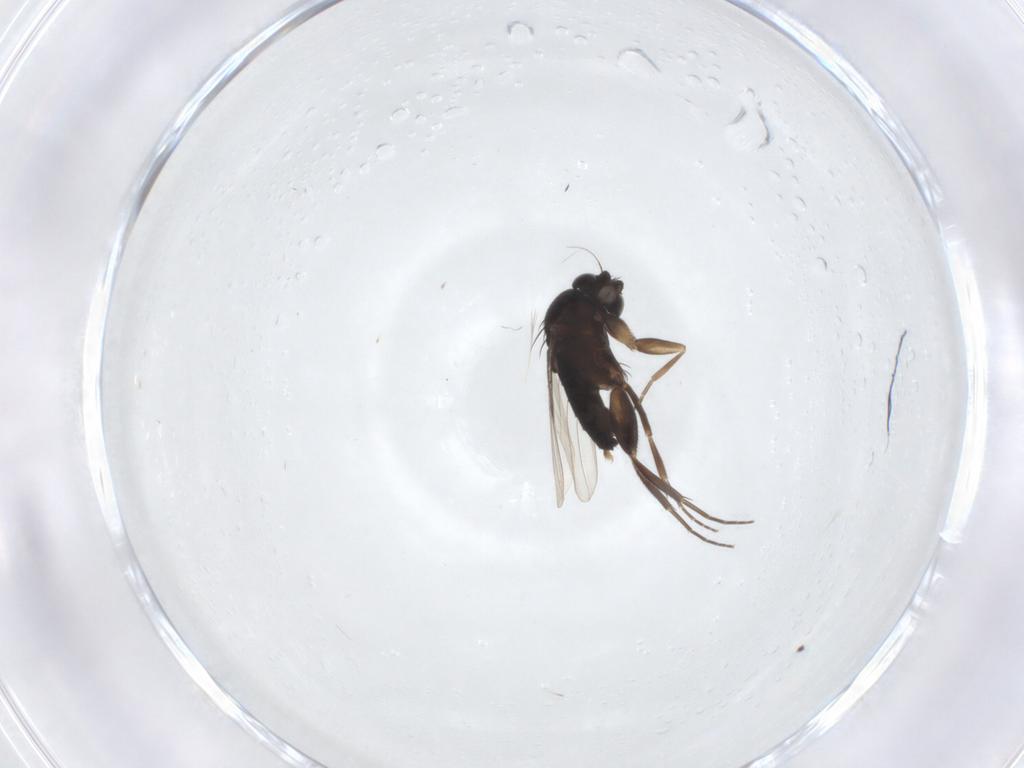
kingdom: Animalia
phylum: Arthropoda
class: Insecta
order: Diptera
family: Phoridae
